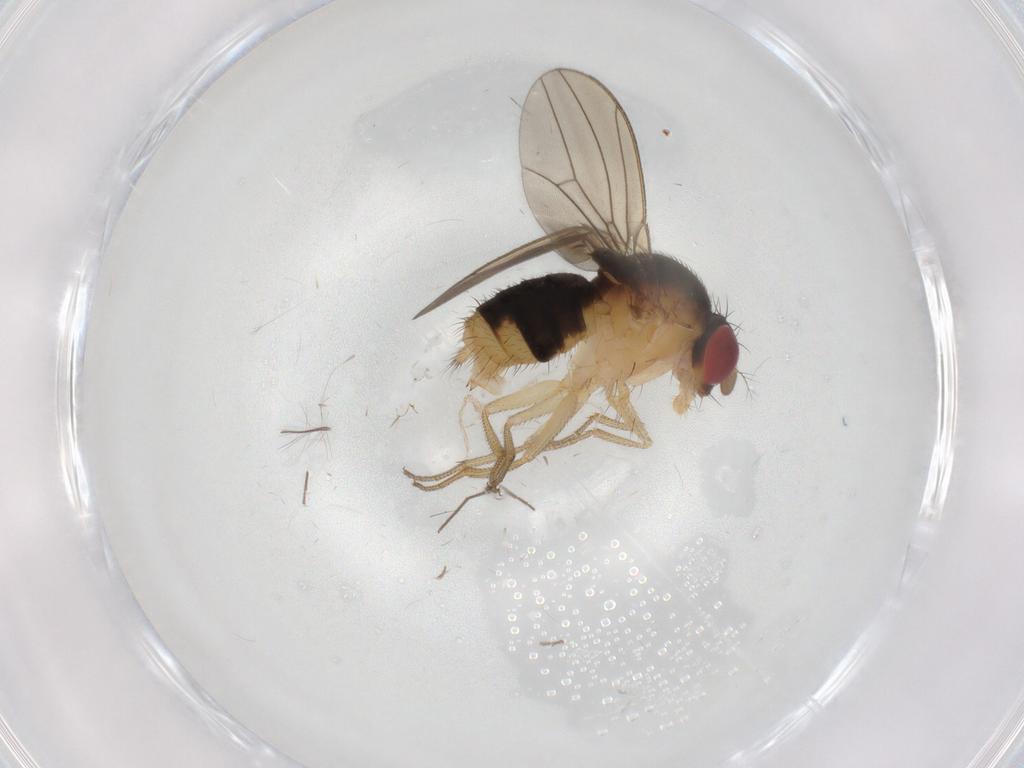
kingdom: Animalia
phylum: Arthropoda
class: Insecta
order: Diptera
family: Drosophilidae
